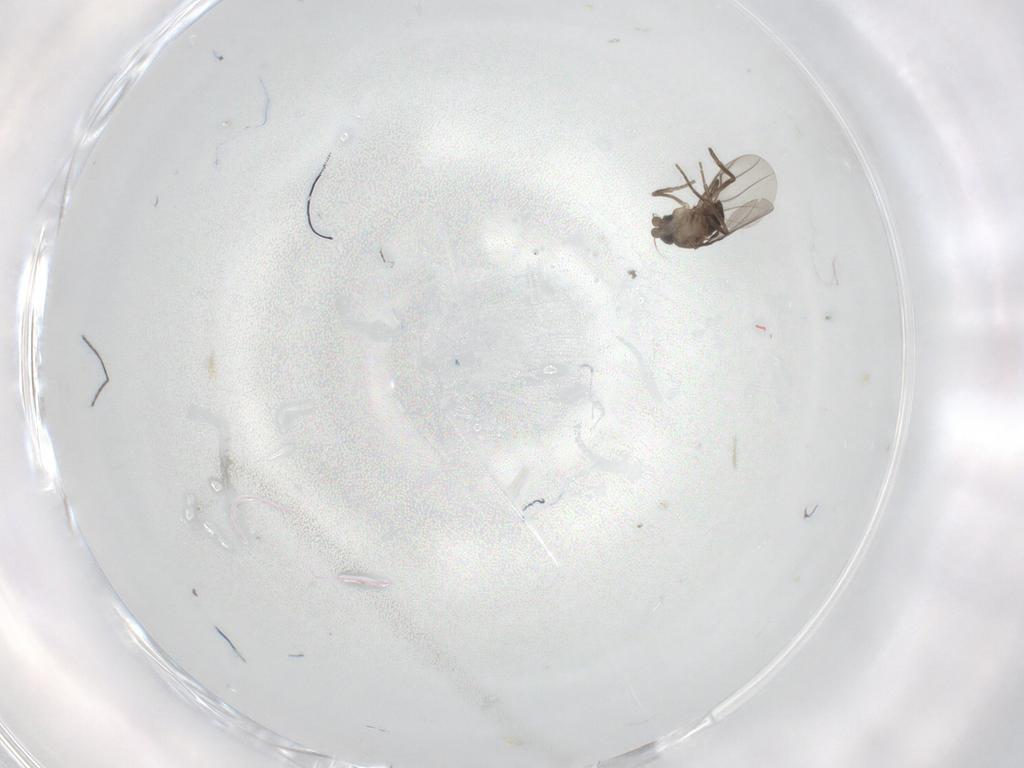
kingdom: Animalia
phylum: Arthropoda
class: Insecta
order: Diptera
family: Phoridae
